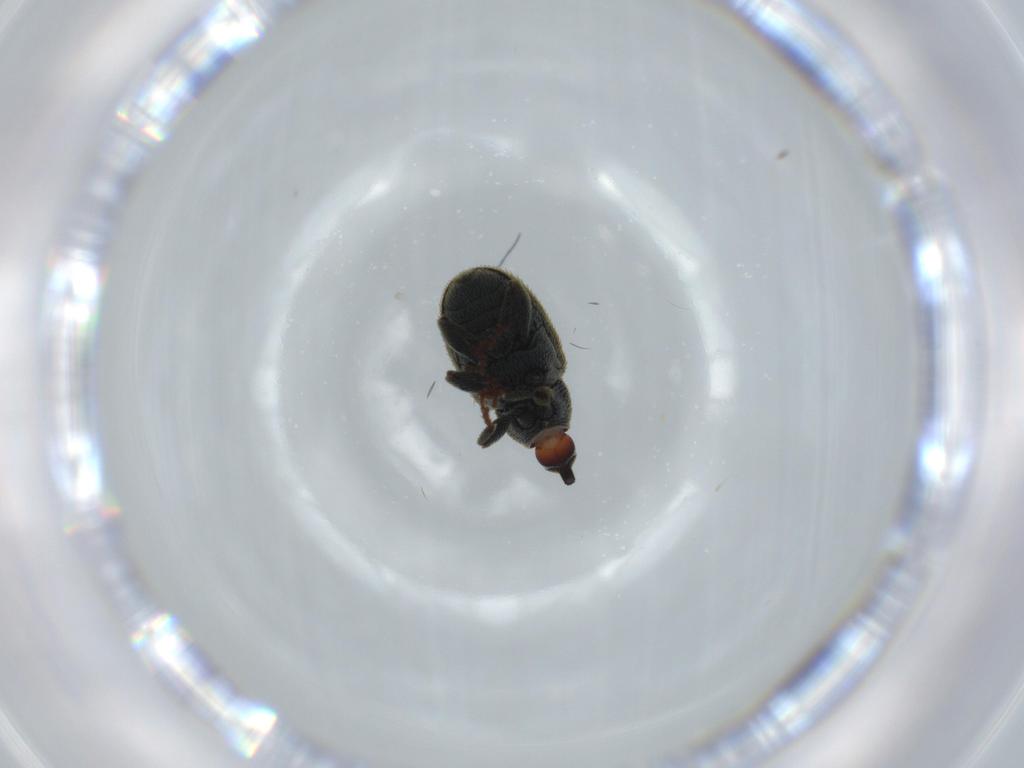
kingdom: Animalia
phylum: Arthropoda
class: Insecta
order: Coleoptera
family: Curculionidae
